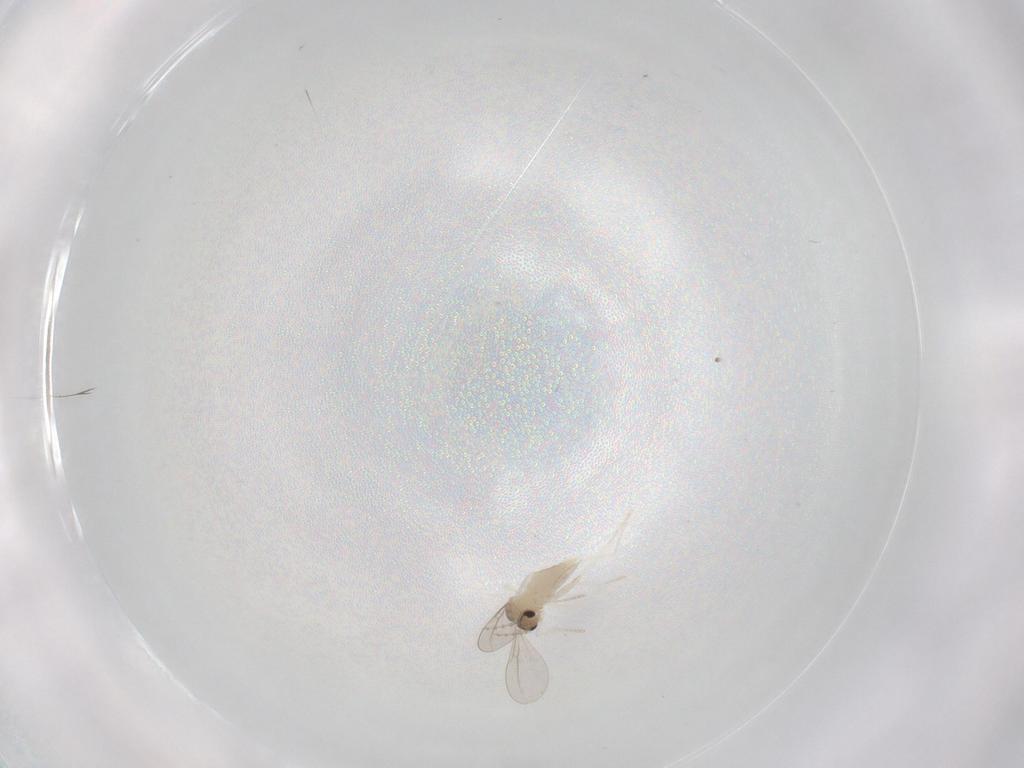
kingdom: Animalia
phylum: Arthropoda
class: Insecta
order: Diptera
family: Cecidomyiidae
